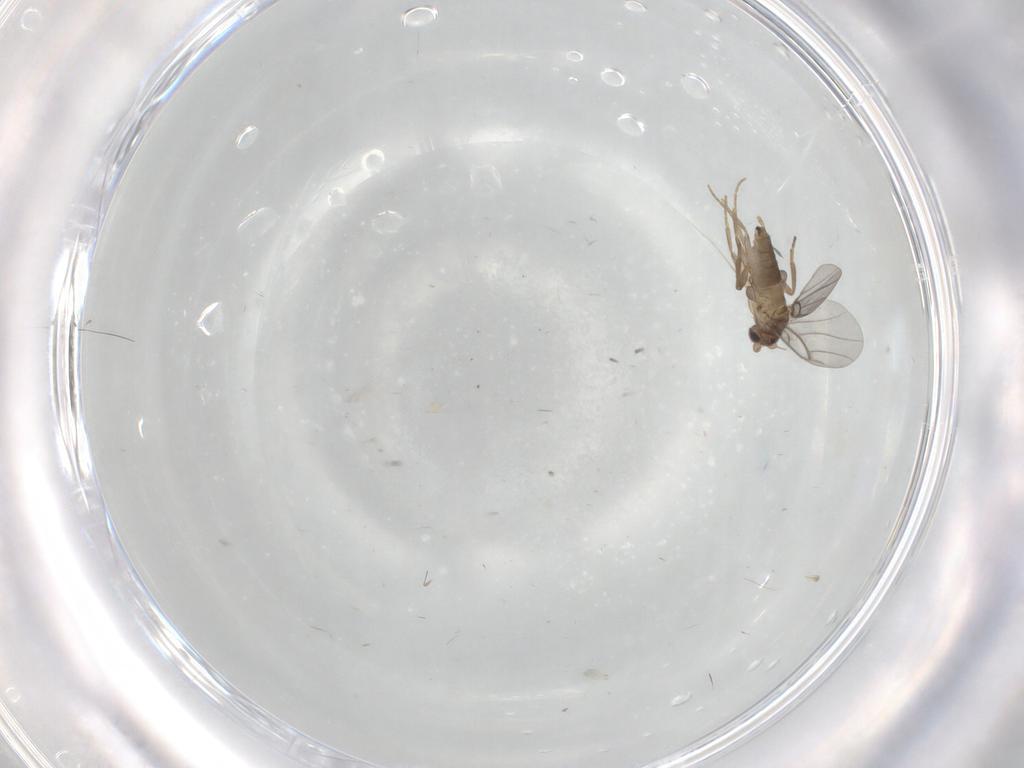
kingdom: Animalia
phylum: Arthropoda
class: Insecta
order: Diptera
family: Cecidomyiidae
